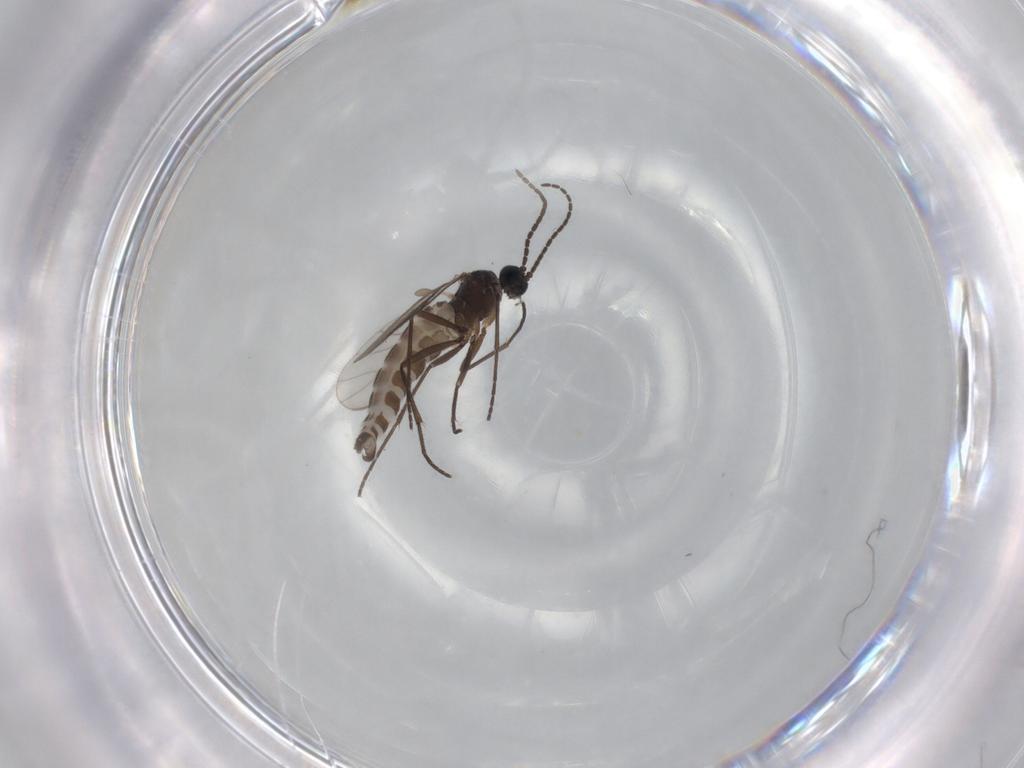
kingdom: Animalia
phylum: Arthropoda
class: Insecta
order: Diptera
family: Sciaridae
